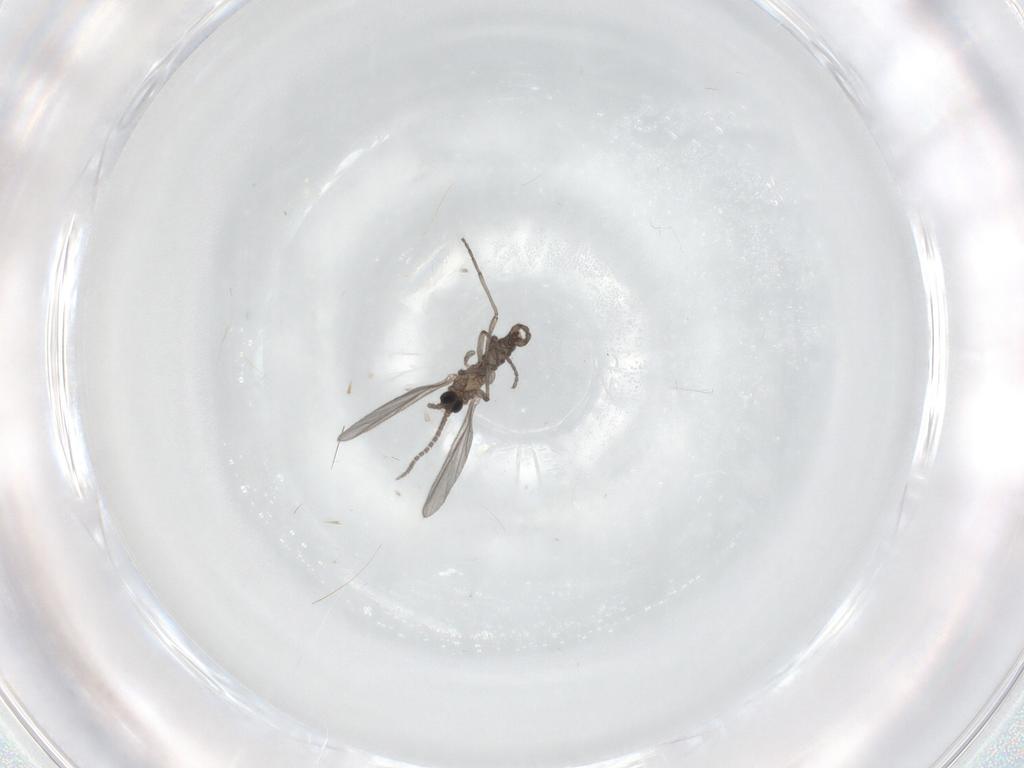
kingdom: Animalia
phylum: Arthropoda
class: Insecta
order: Diptera
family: Sciaridae
